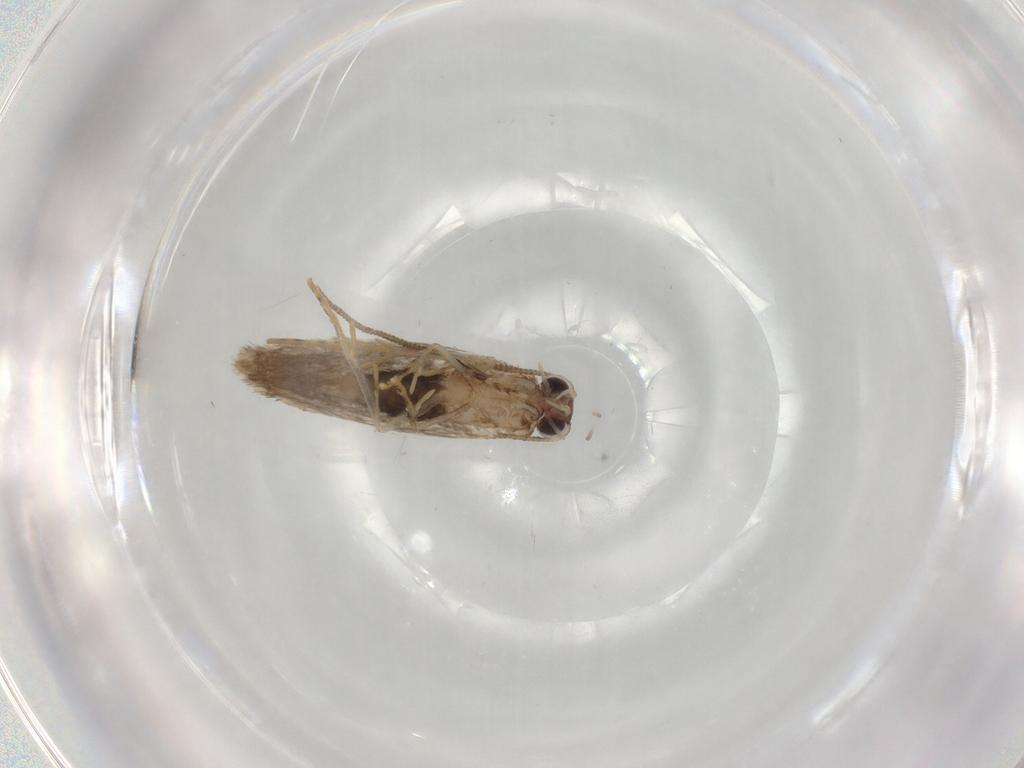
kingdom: Animalia
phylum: Arthropoda
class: Insecta
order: Lepidoptera
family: Tineidae
